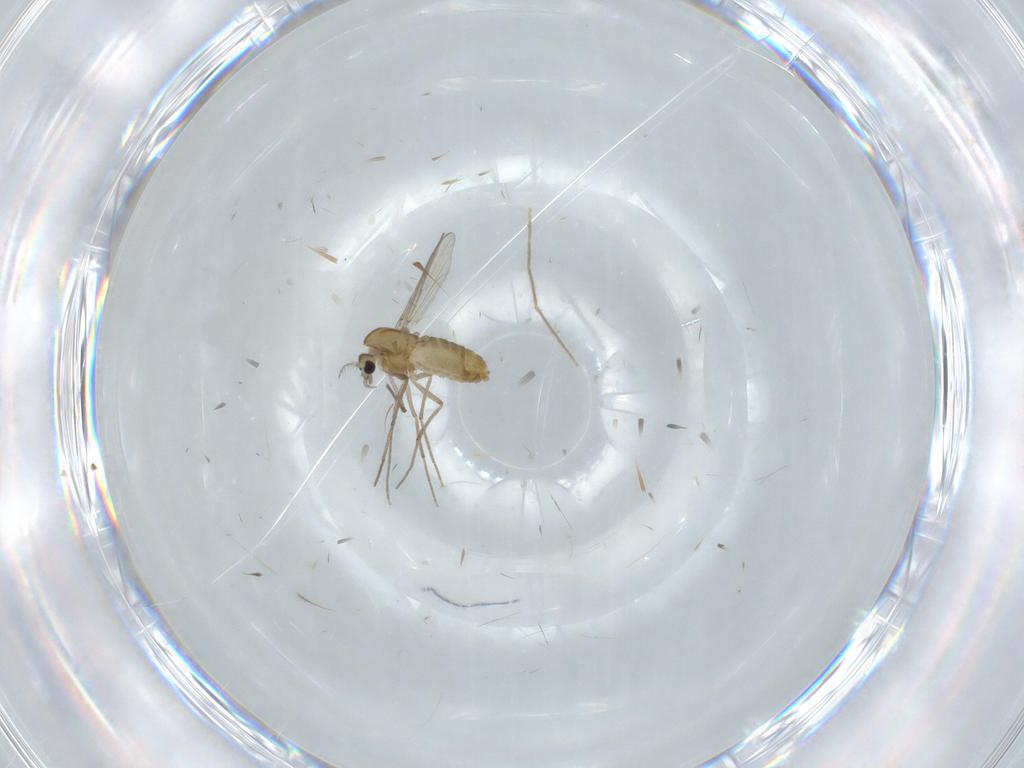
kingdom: Animalia
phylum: Arthropoda
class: Insecta
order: Diptera
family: Chironomidae
